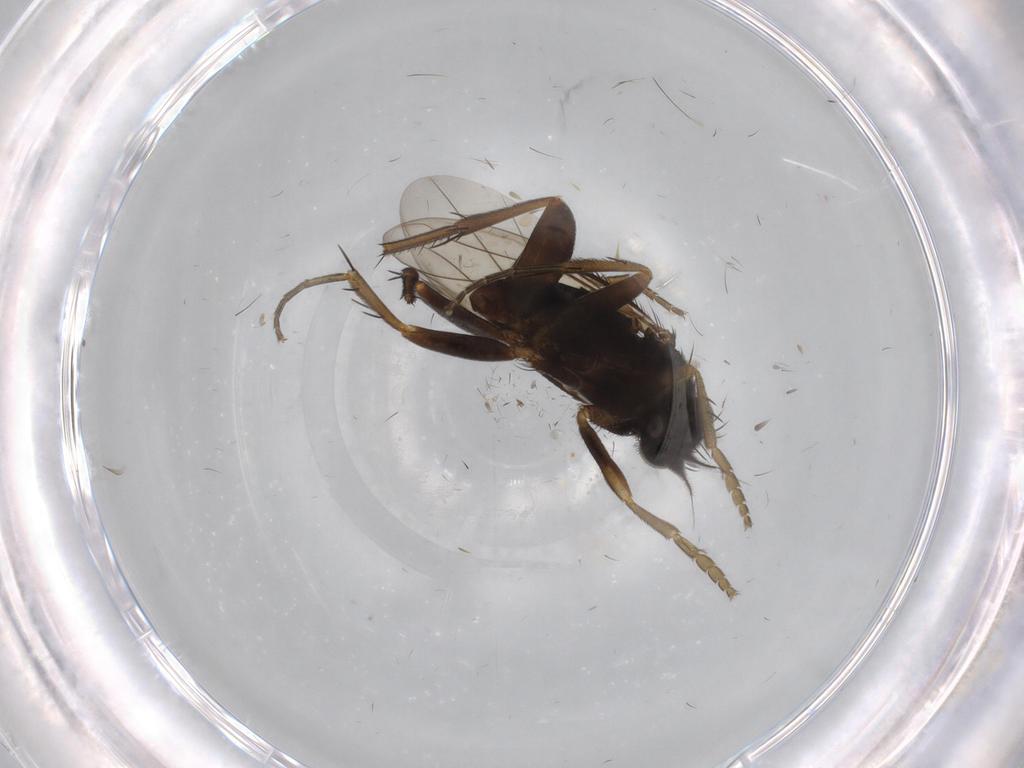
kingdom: Animalia
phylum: Arthropoda
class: Insecta
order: Diptera
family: Phoridae
